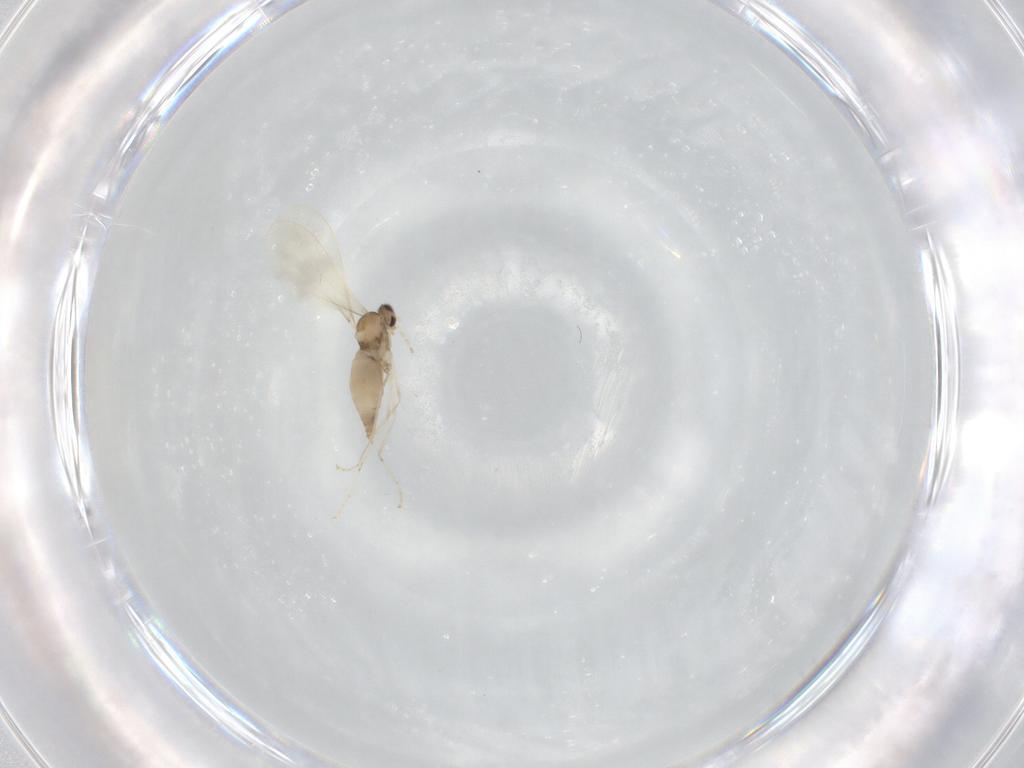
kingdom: Animalia
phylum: Arthropoda
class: Insecta
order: Diptera
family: Cecidomyiidae
